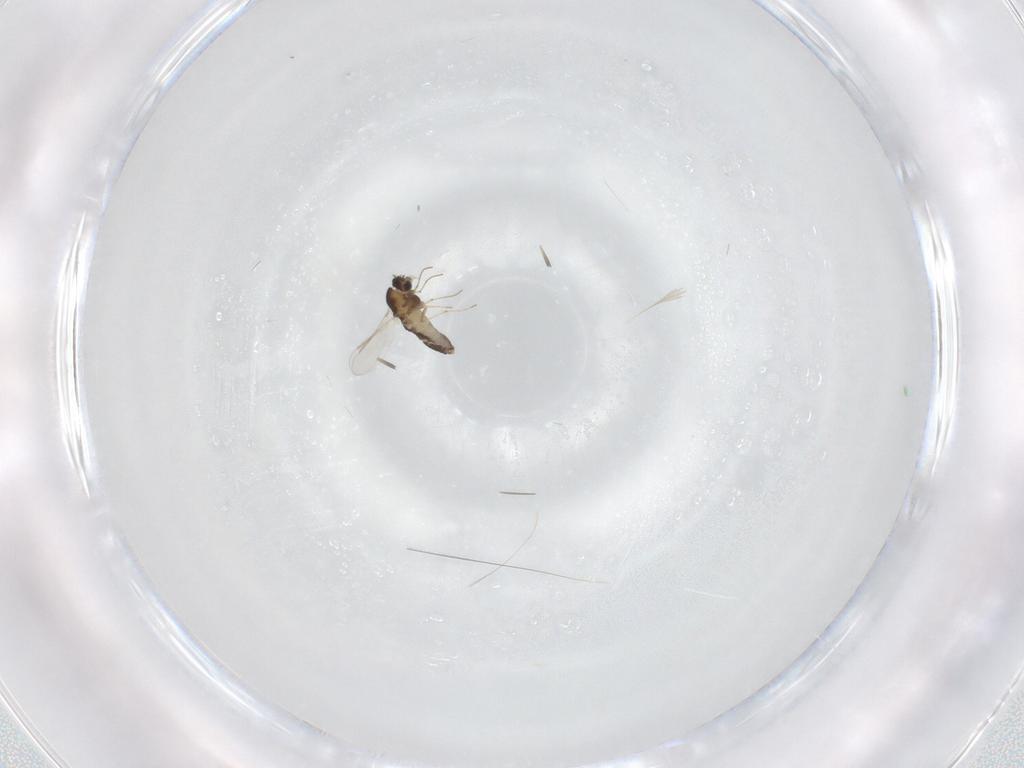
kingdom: Animalia
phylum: Arthropoda
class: Insecta
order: Diptera
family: Chironomidae
